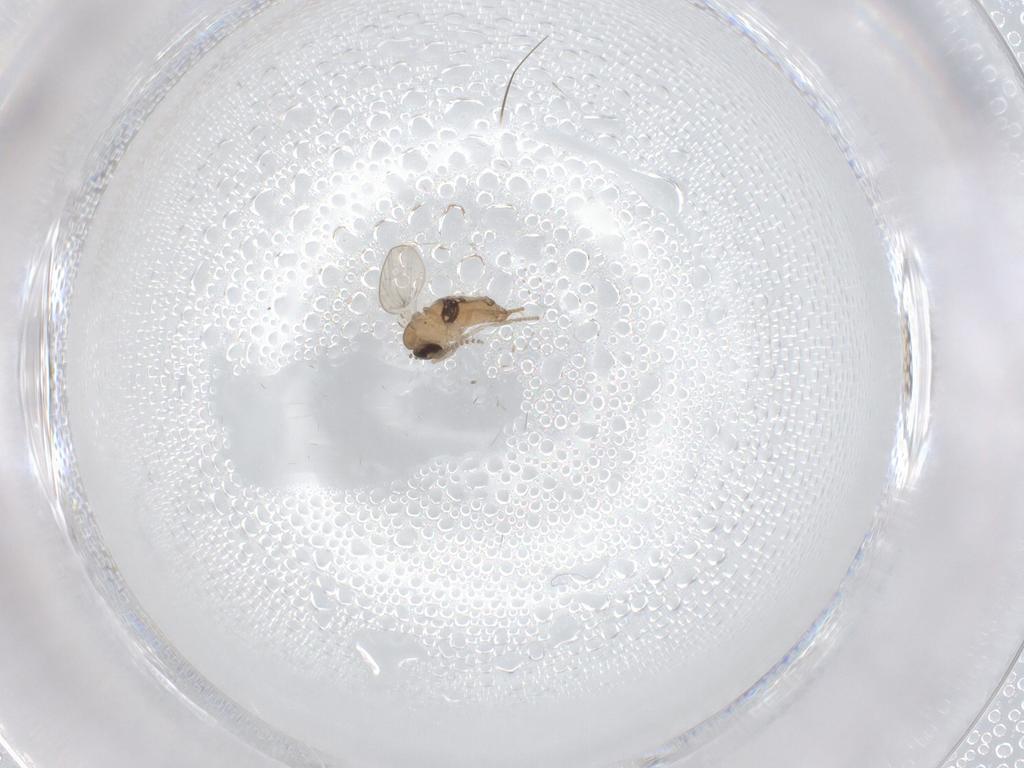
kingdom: Animalia
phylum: Arthropoda
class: Insecta
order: Diptera
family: Psychodidae
